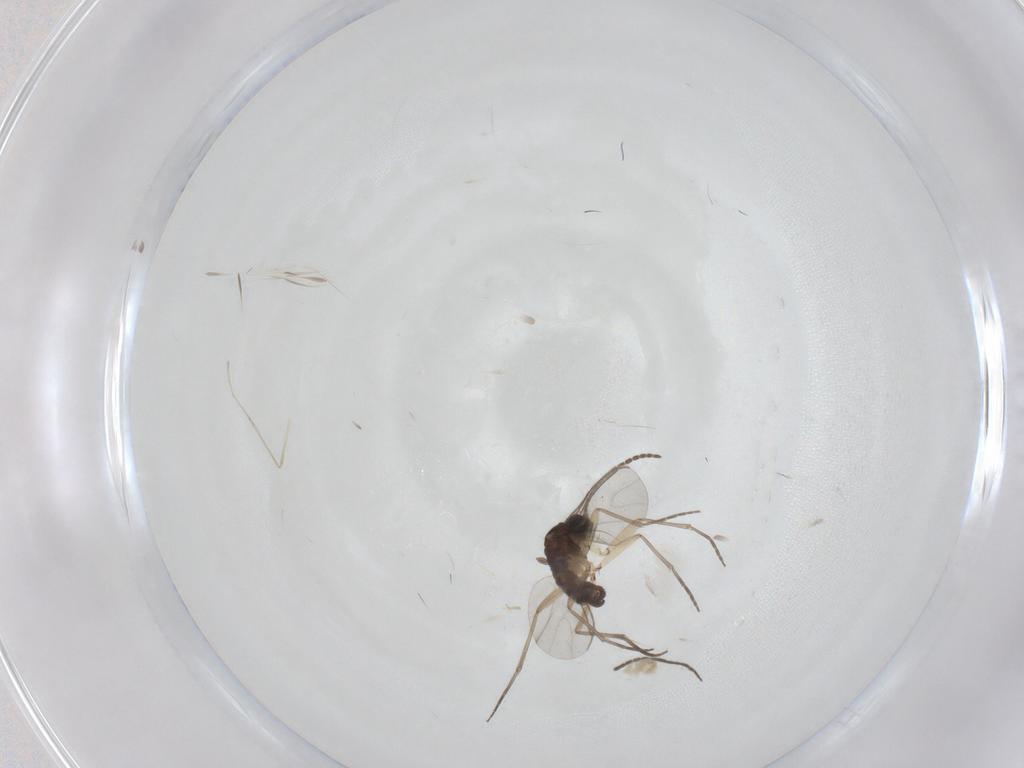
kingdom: Animalia
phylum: Arthropoda
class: Insecta
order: Diptera
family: Sciaridae
